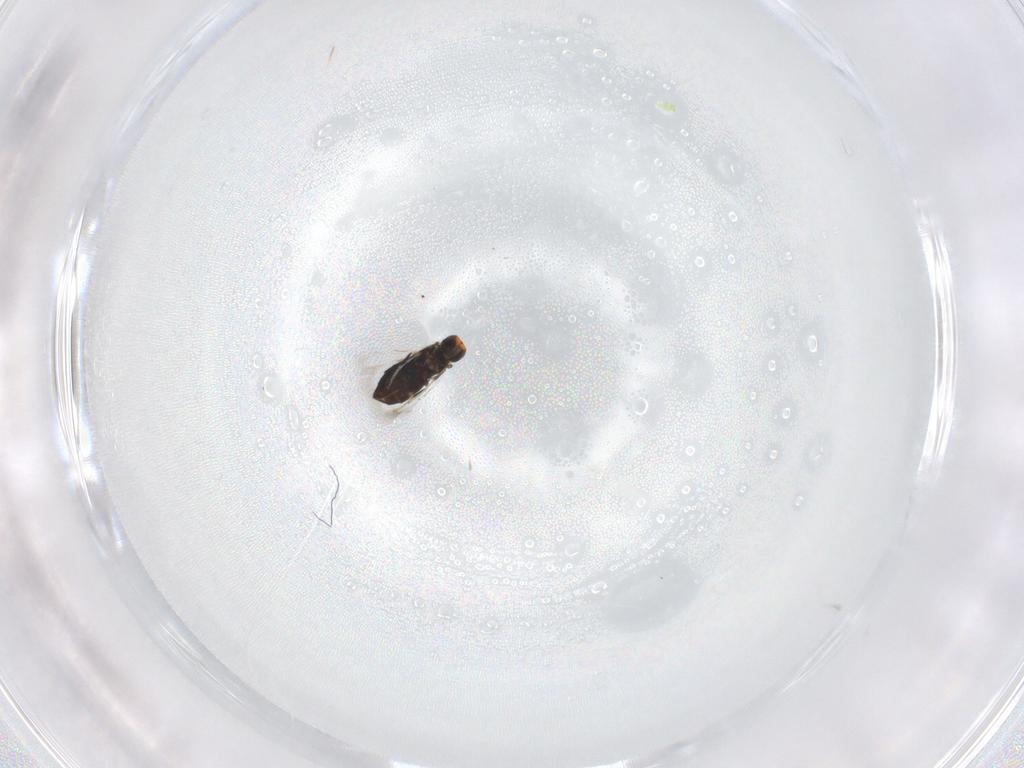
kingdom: Animalia
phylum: Arthropoda
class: Insecta
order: Hymenoptera
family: Signiphoridae
